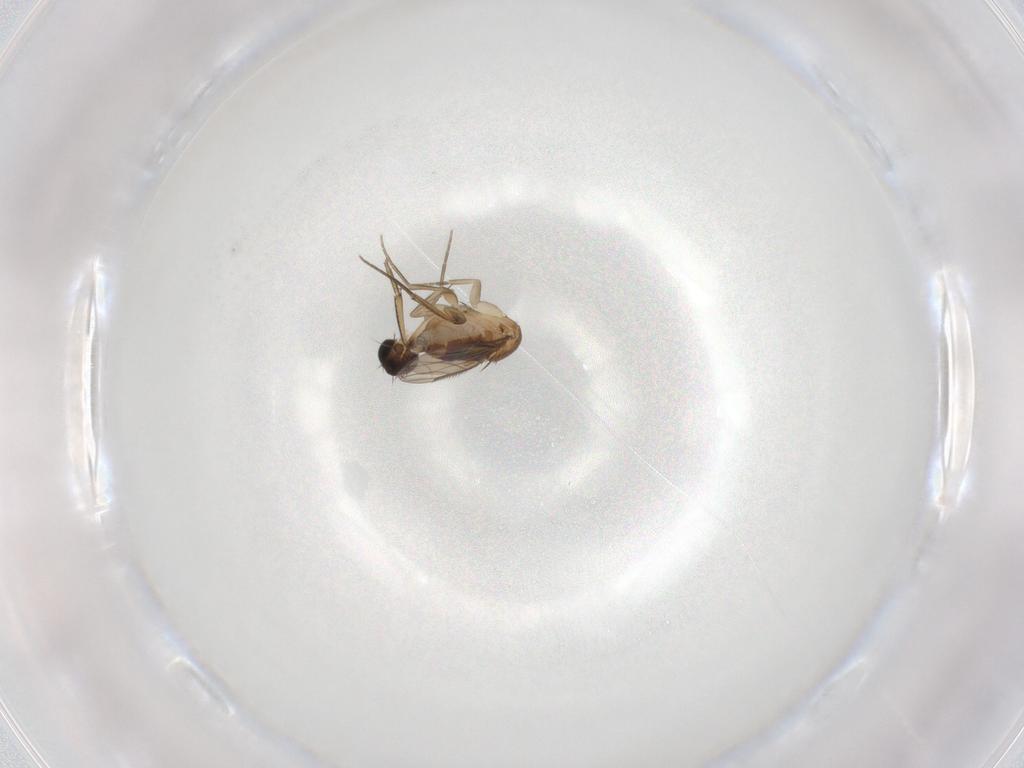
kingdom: Animalia
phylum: Arthropoda
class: Insecta
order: Diptera
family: Phoridae
